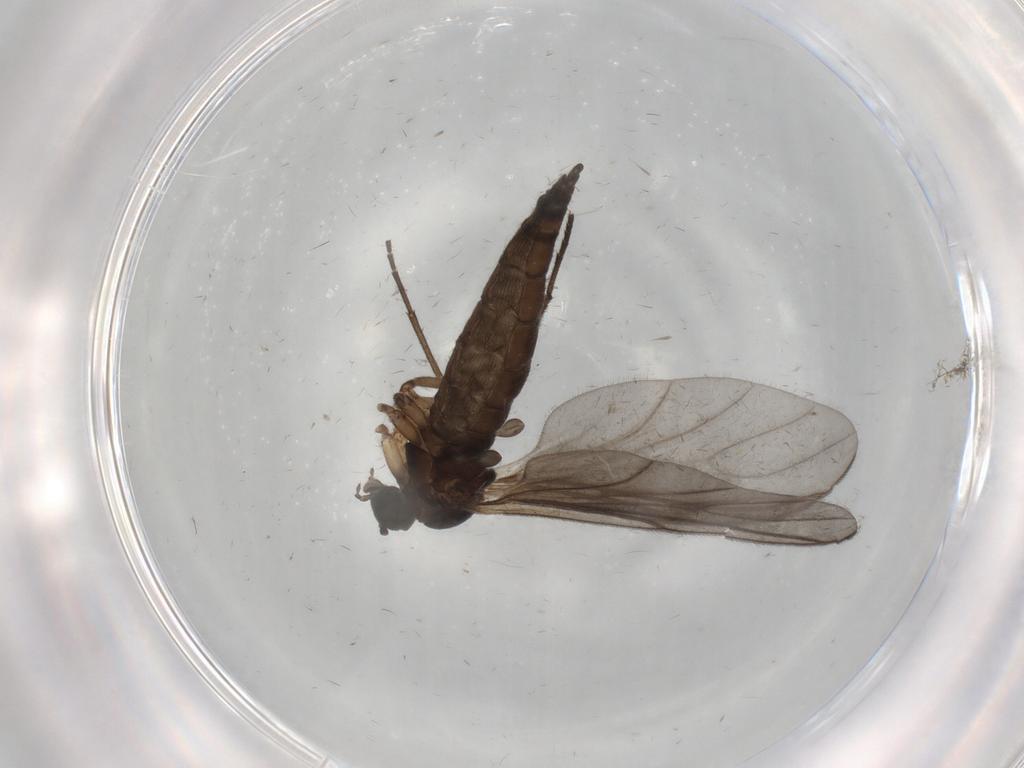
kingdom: Animalia
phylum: Arthropoda
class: Insecta
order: Diptera
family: Sciaridae
